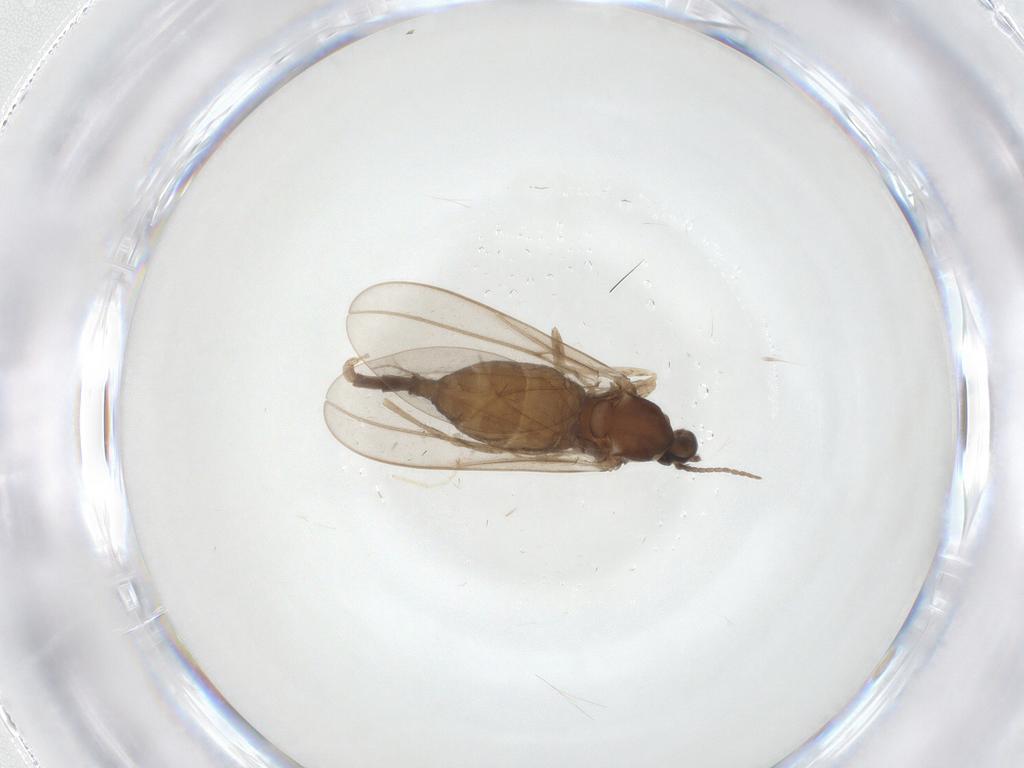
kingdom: Animalia
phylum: Arthropoda
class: Insecta
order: Diptera
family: Cecidomyiidae
